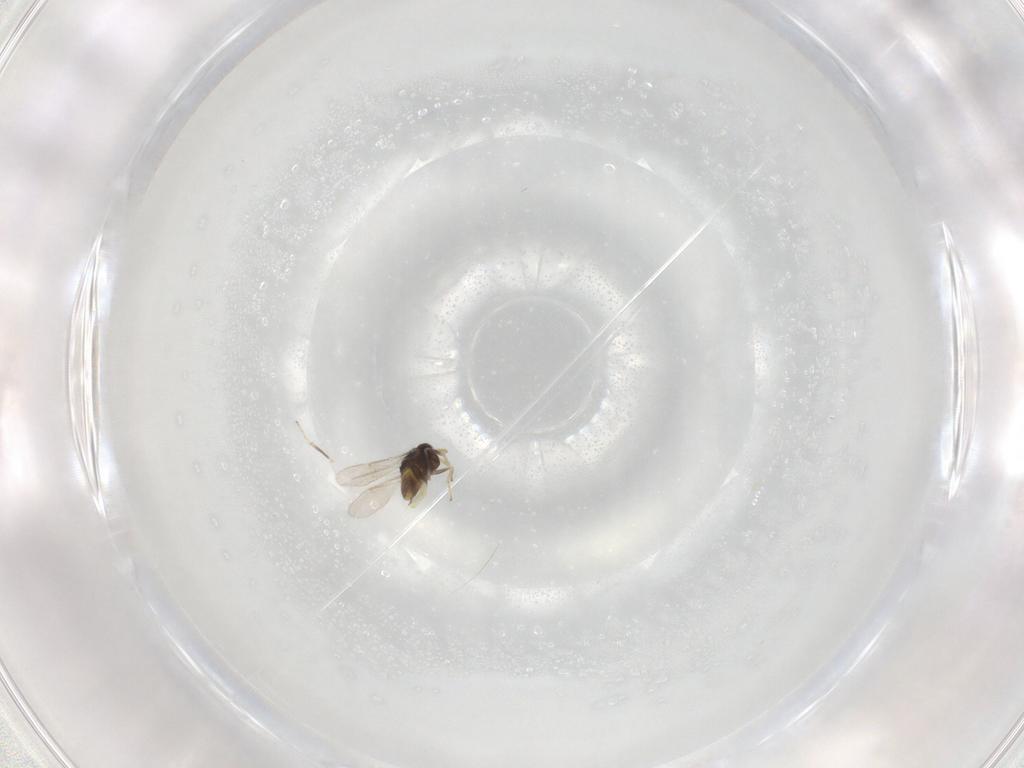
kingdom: Animalia
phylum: Arthropoda
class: Insecta
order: Hymenoptera
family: Aphelinidae
